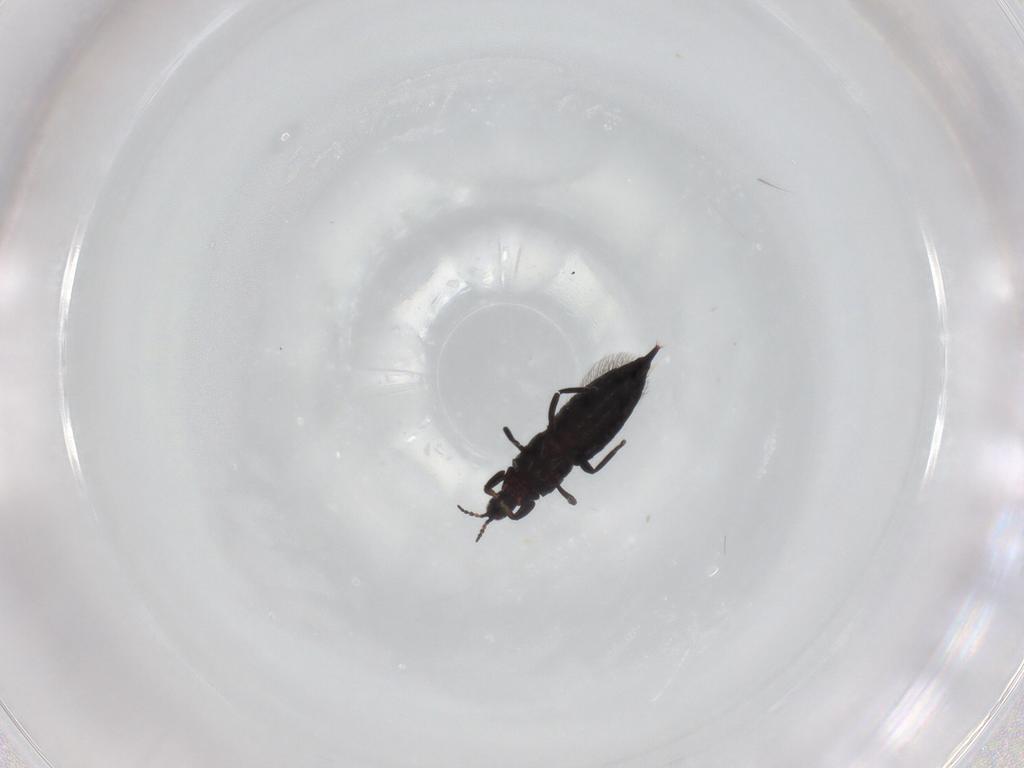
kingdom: Animalia
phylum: Arthropoda
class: Insecta
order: Thysanoptera
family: Phlaeothripidae
